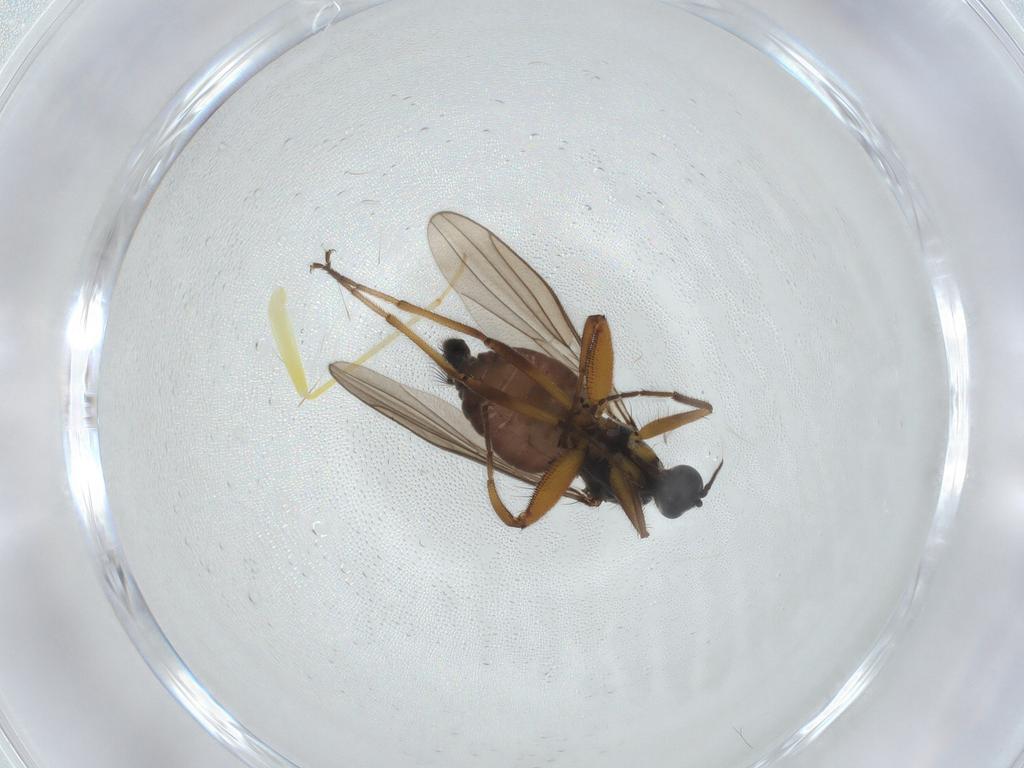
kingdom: Animalia
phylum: Arthropoda
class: Insecta
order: Diptera
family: Hybotidae
